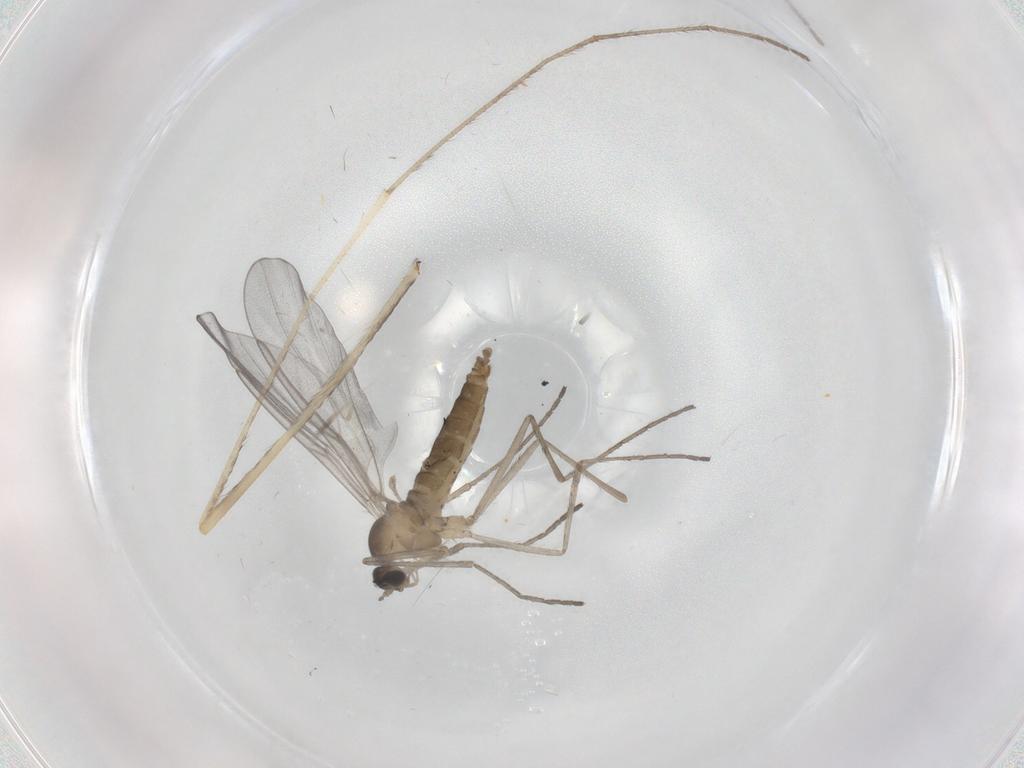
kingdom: Animalia
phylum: Arthropoda
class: Insecta
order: Diptera
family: Cecidomyiidae
